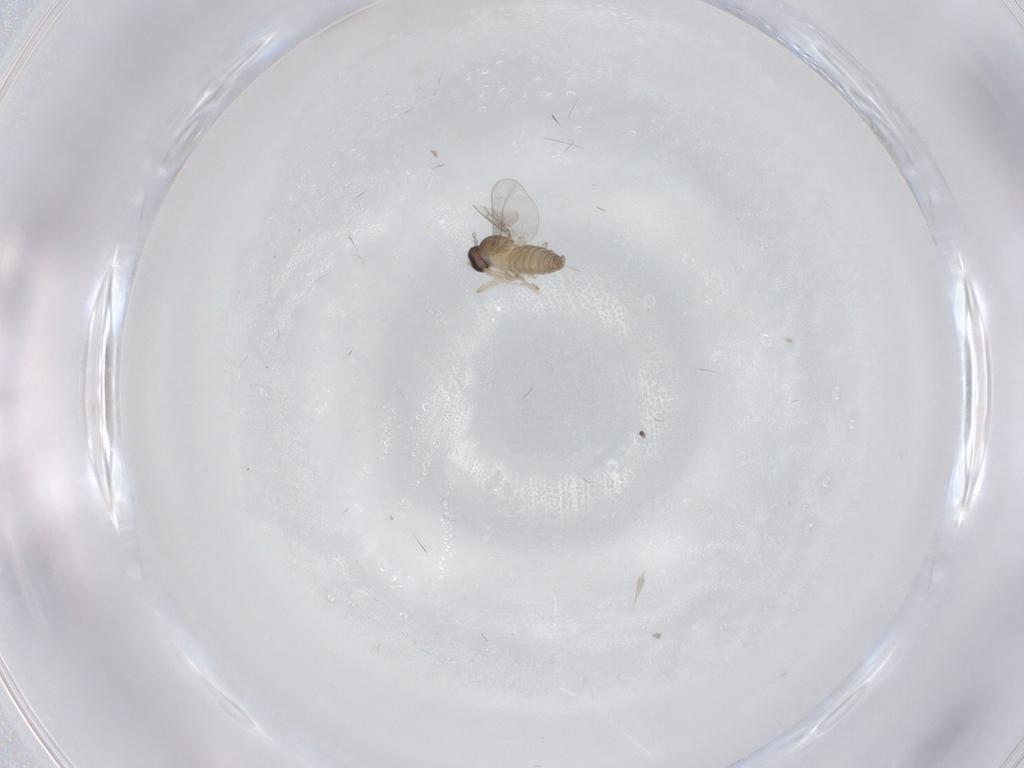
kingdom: Animalia
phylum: Arthropoda
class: Insecta
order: Diptera
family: Cecidomyiidae
